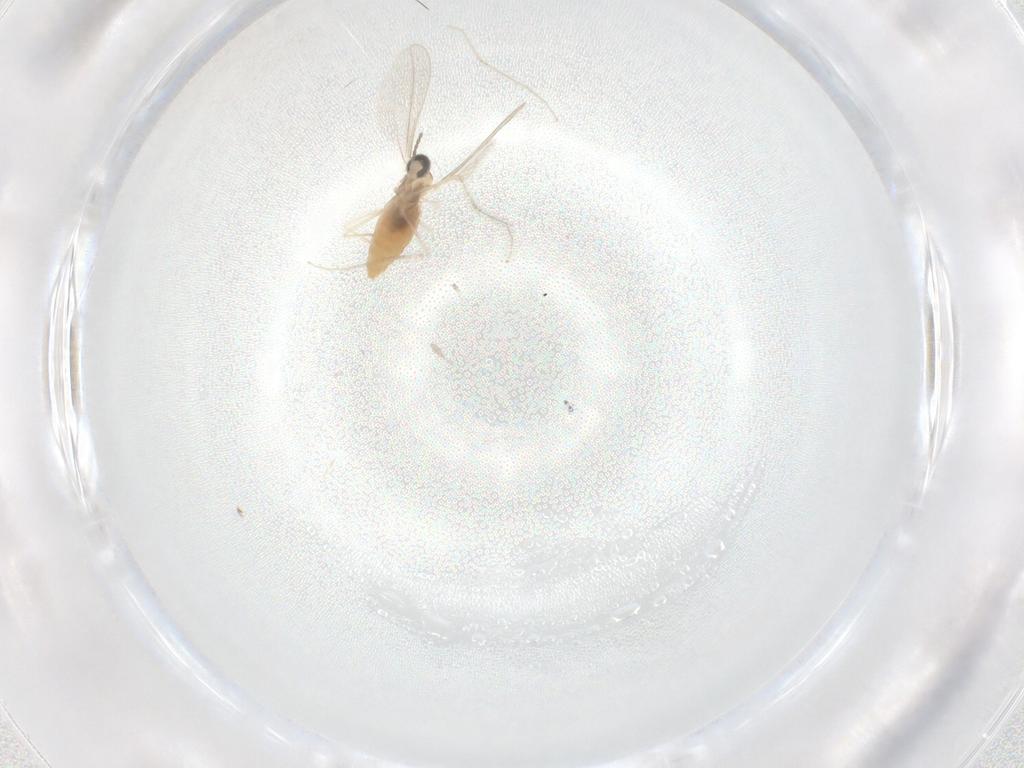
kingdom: Animalia
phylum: Arthropoda
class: Insecta
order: Diptera
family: Cecidomyiidae
